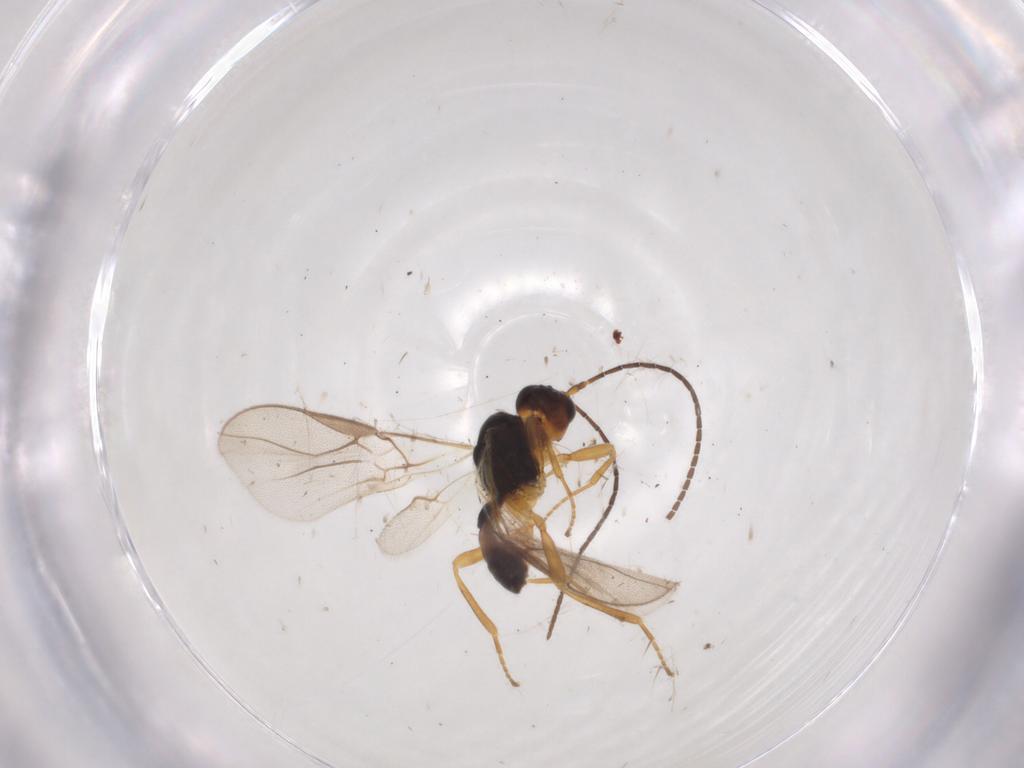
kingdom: Animalia
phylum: Arthropoda
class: Insecta
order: Hymenoptera
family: Braconidae
